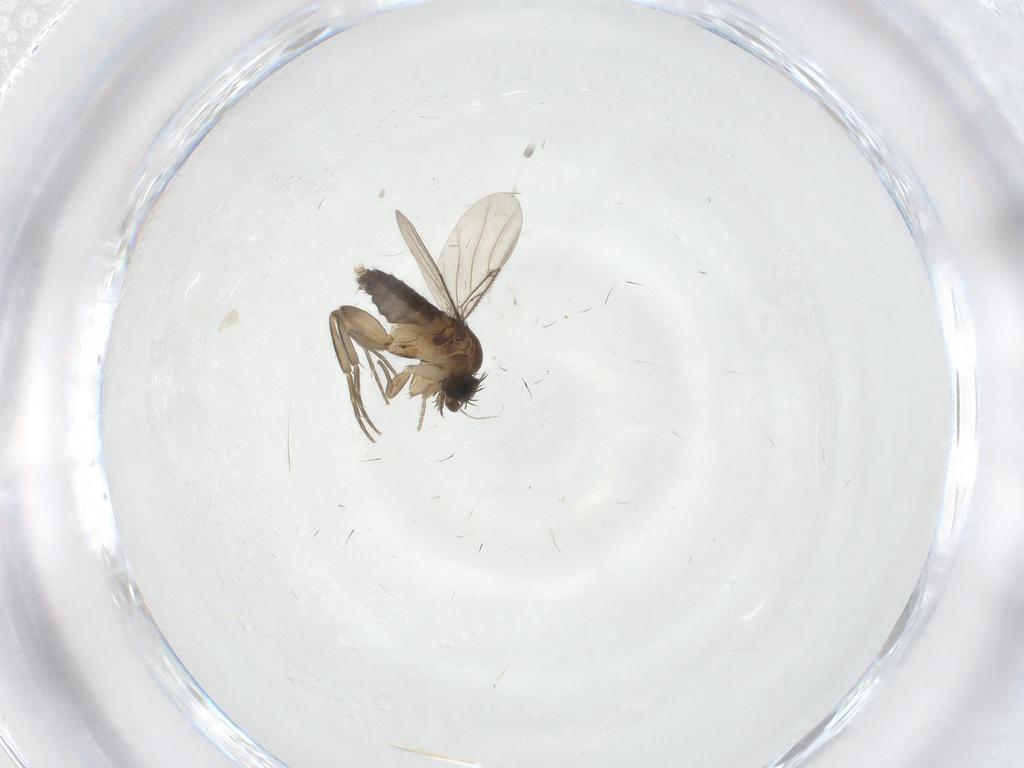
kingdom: Animalia
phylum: Arthropoda
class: Insecta
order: Diptera
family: Phoridae
